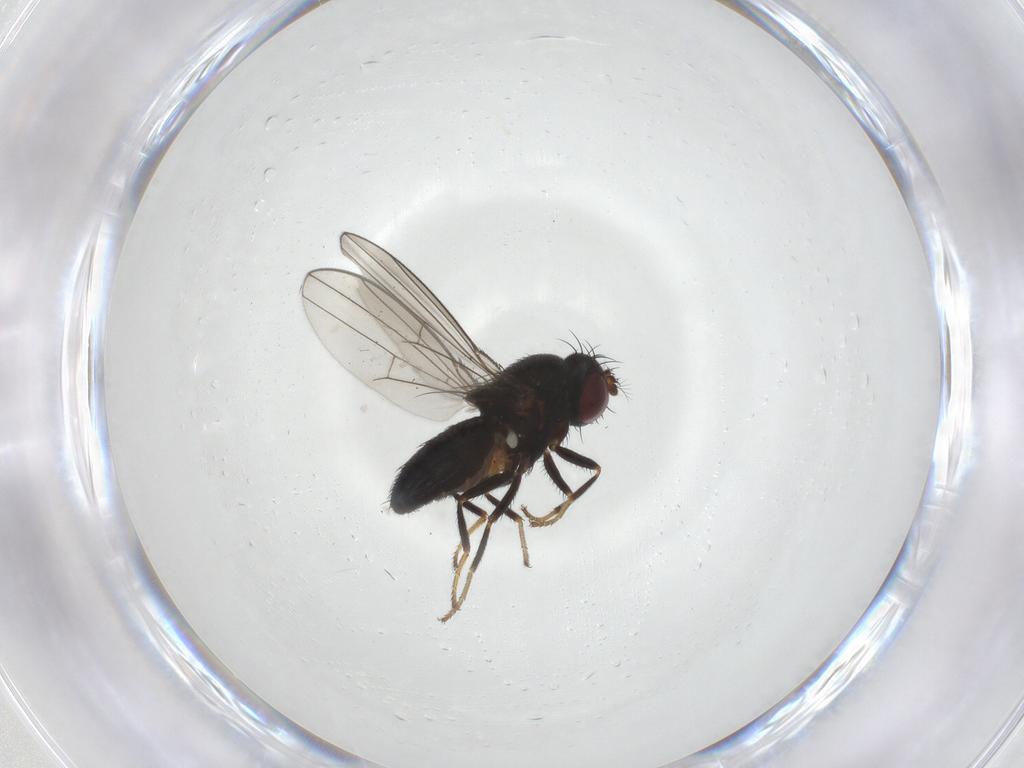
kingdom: Animalia
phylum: Arthropoda
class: Insecta
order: Diptera
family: Ephydridae
